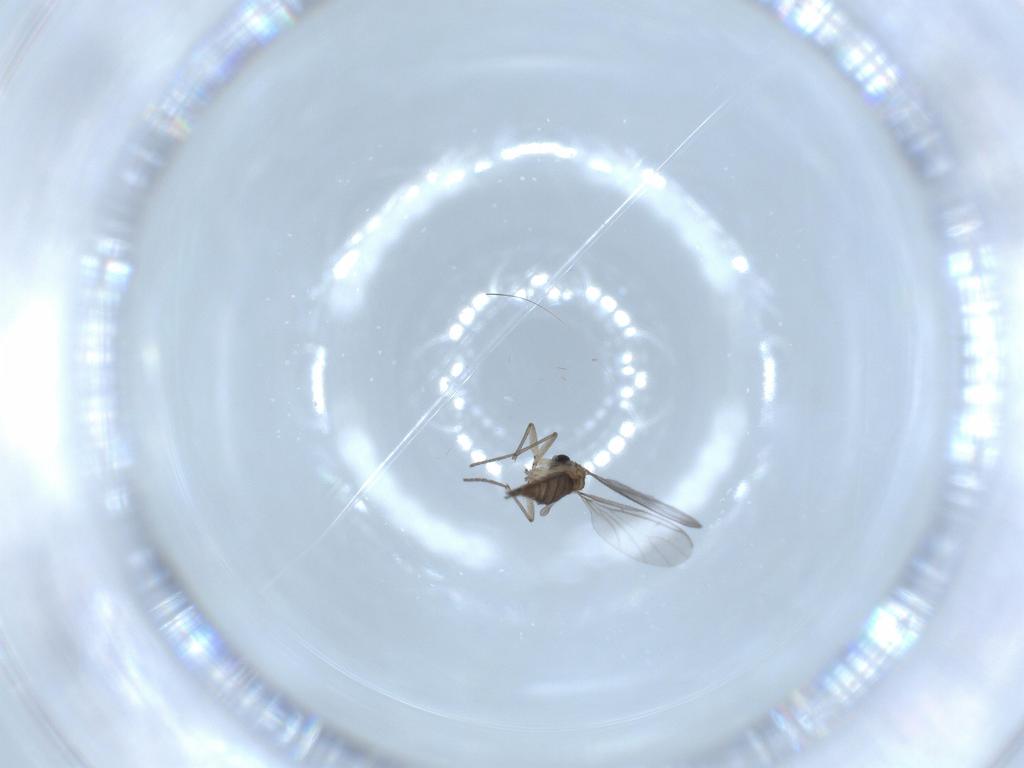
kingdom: Animalia
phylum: Arthropoda
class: Insecta
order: Diptera
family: Sciaridae
